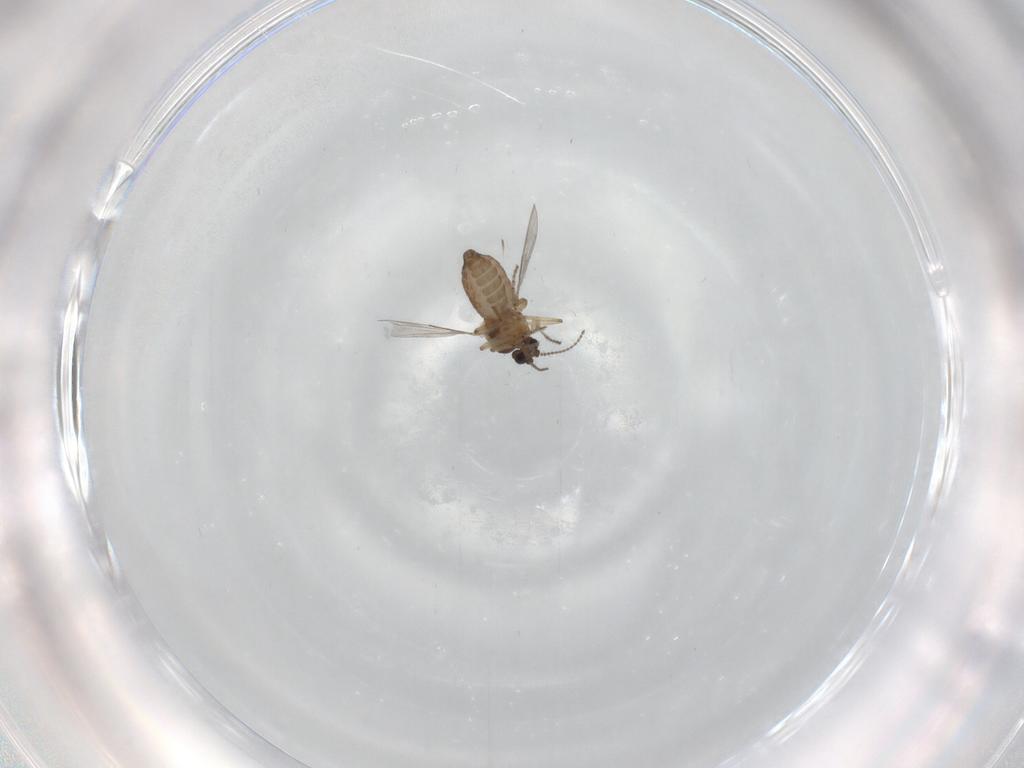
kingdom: Animalia
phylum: Arthropoda
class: Insecta
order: Diptera
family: Ceratopogonidae
